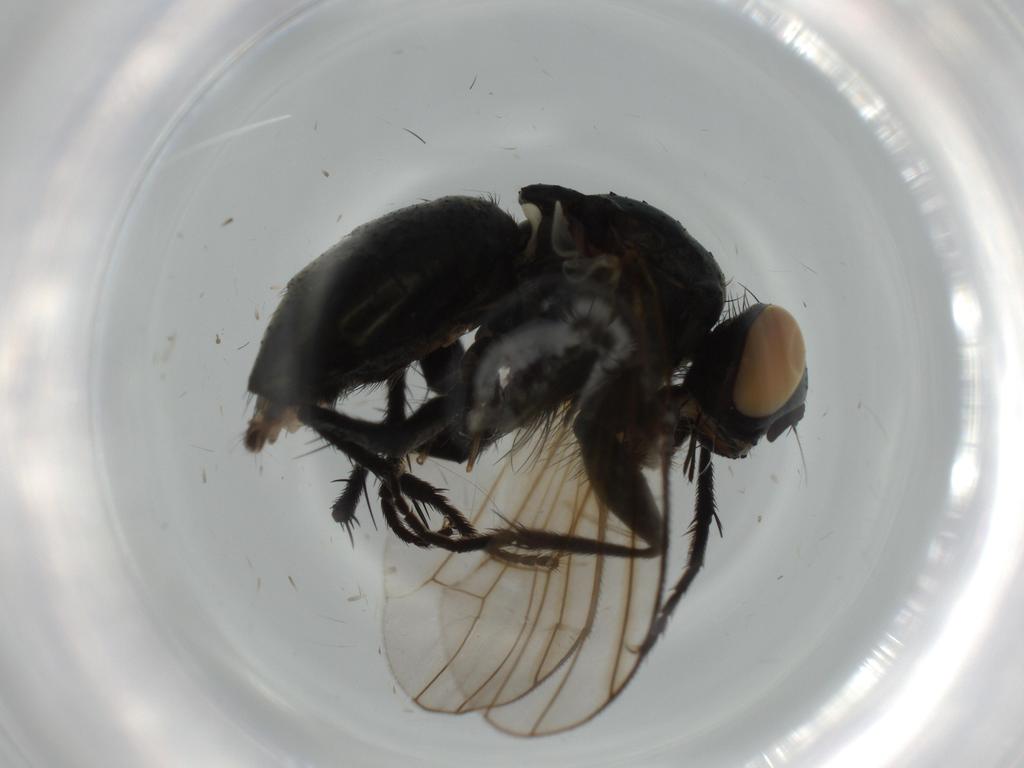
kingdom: Animalia
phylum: Arthropoda
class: Insecta
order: Diptera
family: Muscidae
